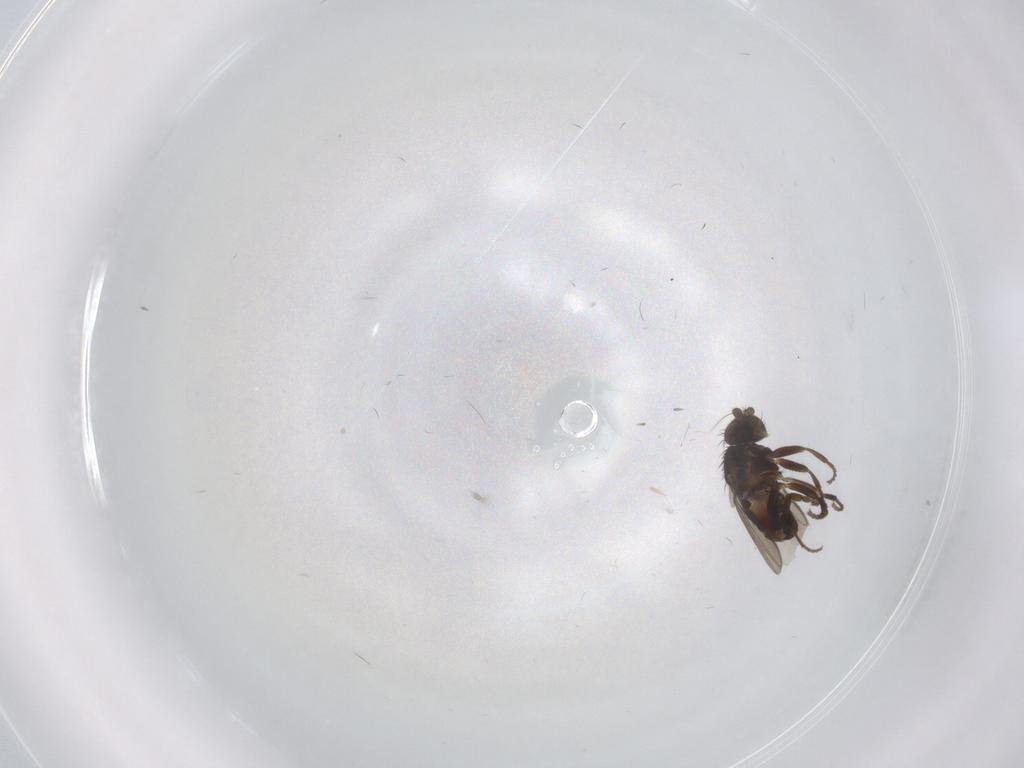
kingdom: Animalia
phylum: Arthropoda
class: Insecta
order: Diptera
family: Sphaeroceridae
